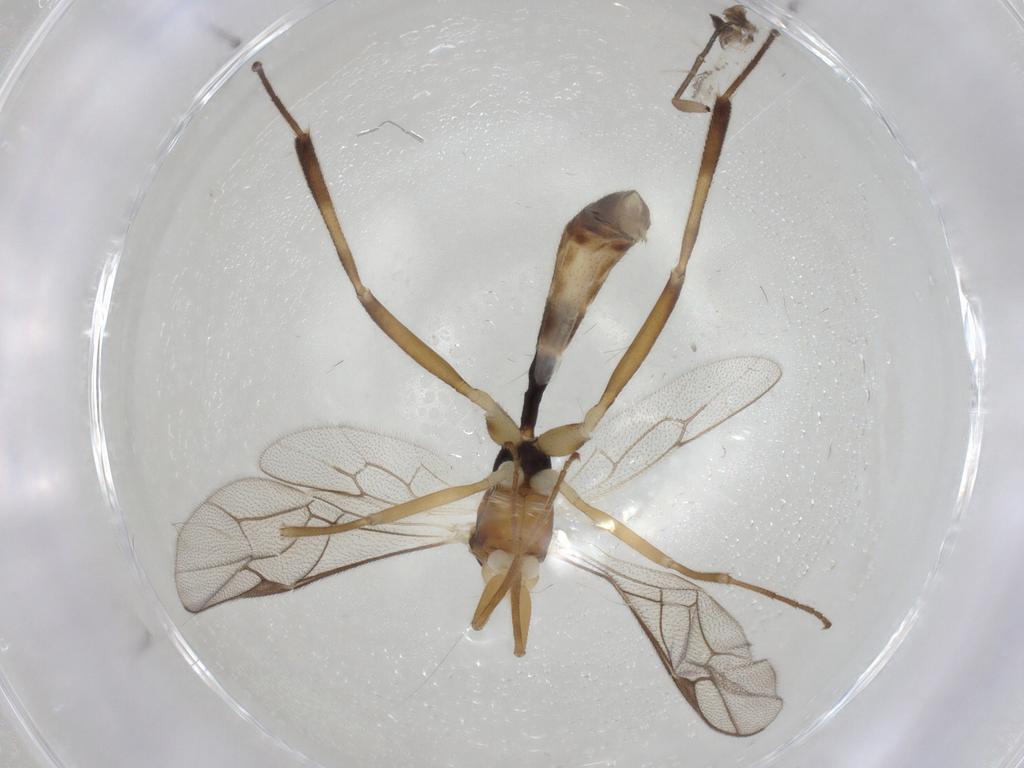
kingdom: Animalia
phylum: Arthropoda
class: Insecta
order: Hymenoptera
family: Ichneumonidae
